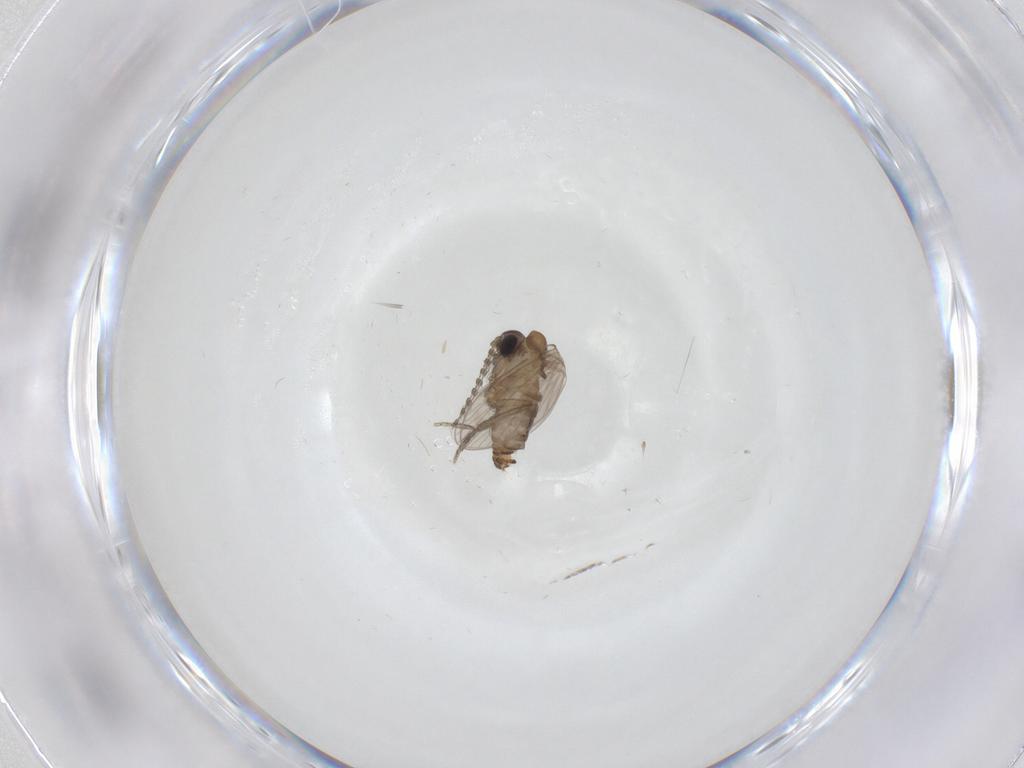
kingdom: Animalia
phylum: Arthropoda
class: Insecta
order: Diptera
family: Psychodidae
